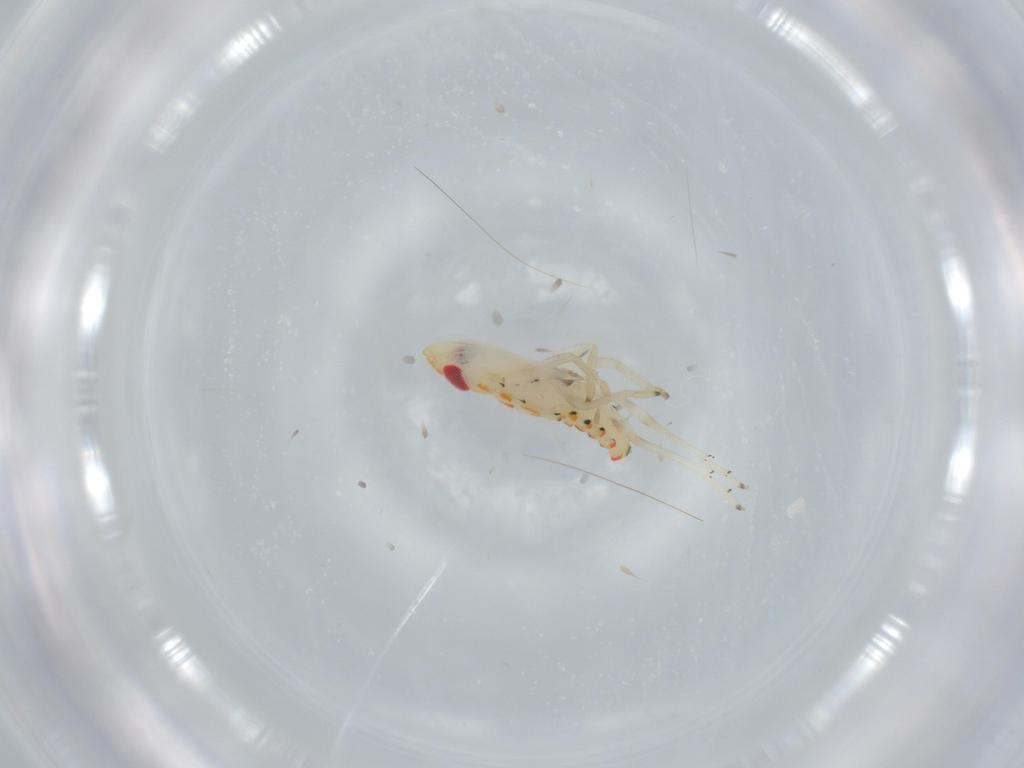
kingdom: Animalia
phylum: Arthropoda
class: Insecta
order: Hemiptera
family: Tropiduchidae
